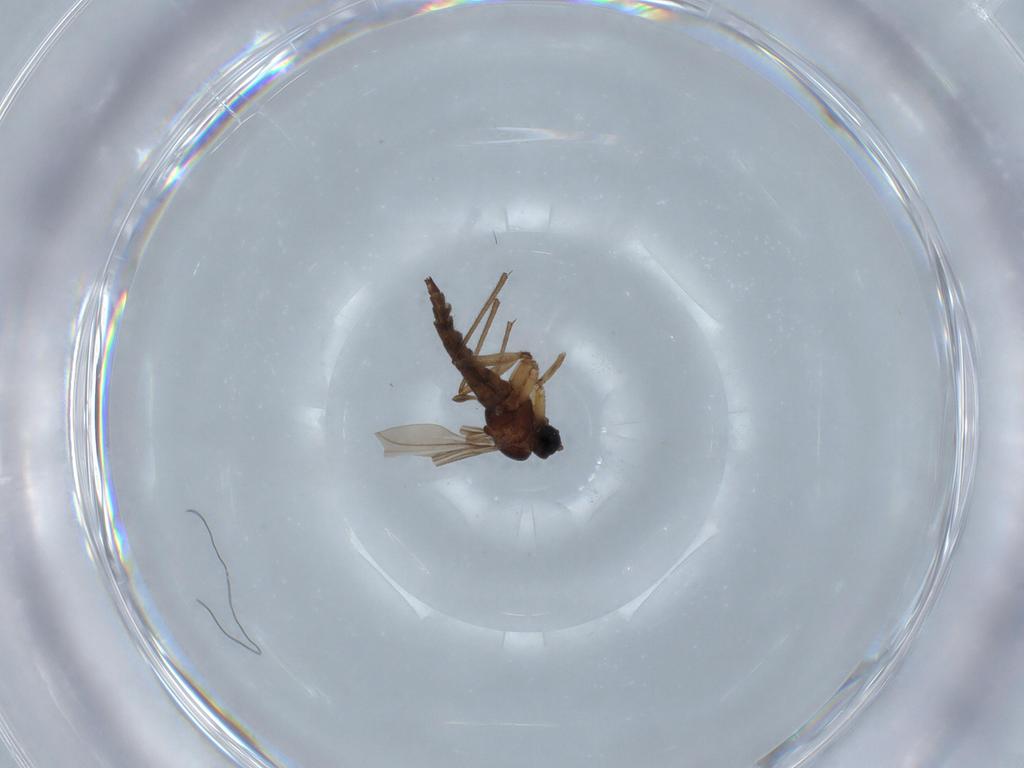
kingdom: Animalia
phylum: Arthropoda
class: Insecta
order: Diptera
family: Sciaridae
